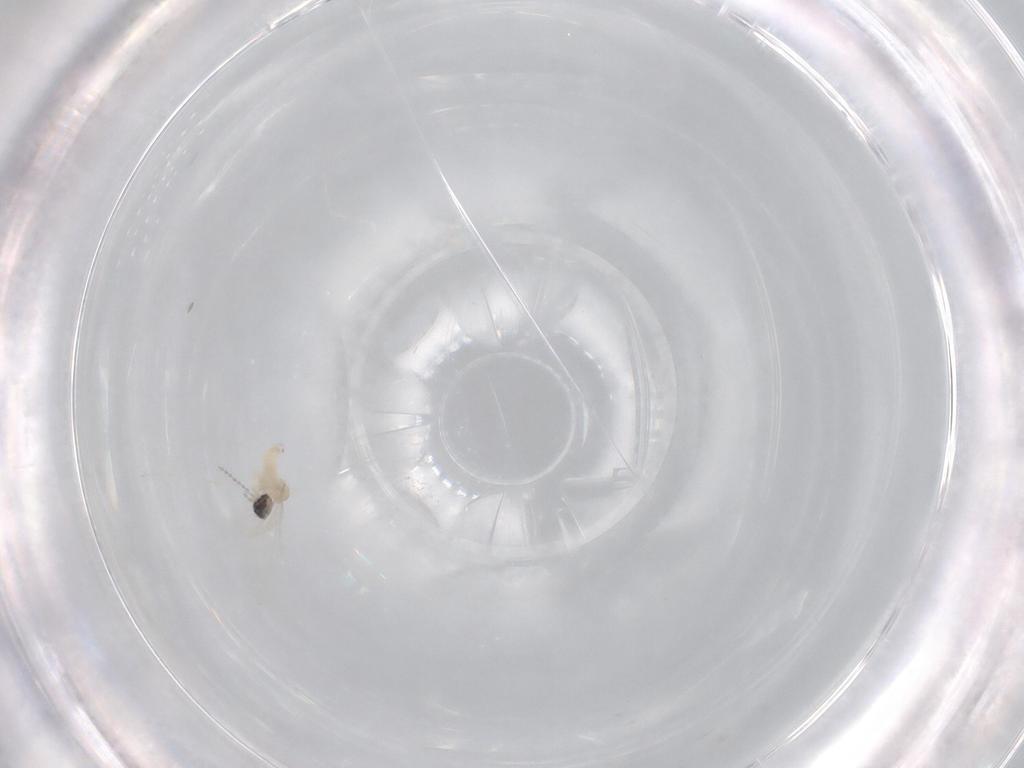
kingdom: Animalia
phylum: Arthropoda
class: Insecta
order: Diptera
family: Cecidomyiidae
